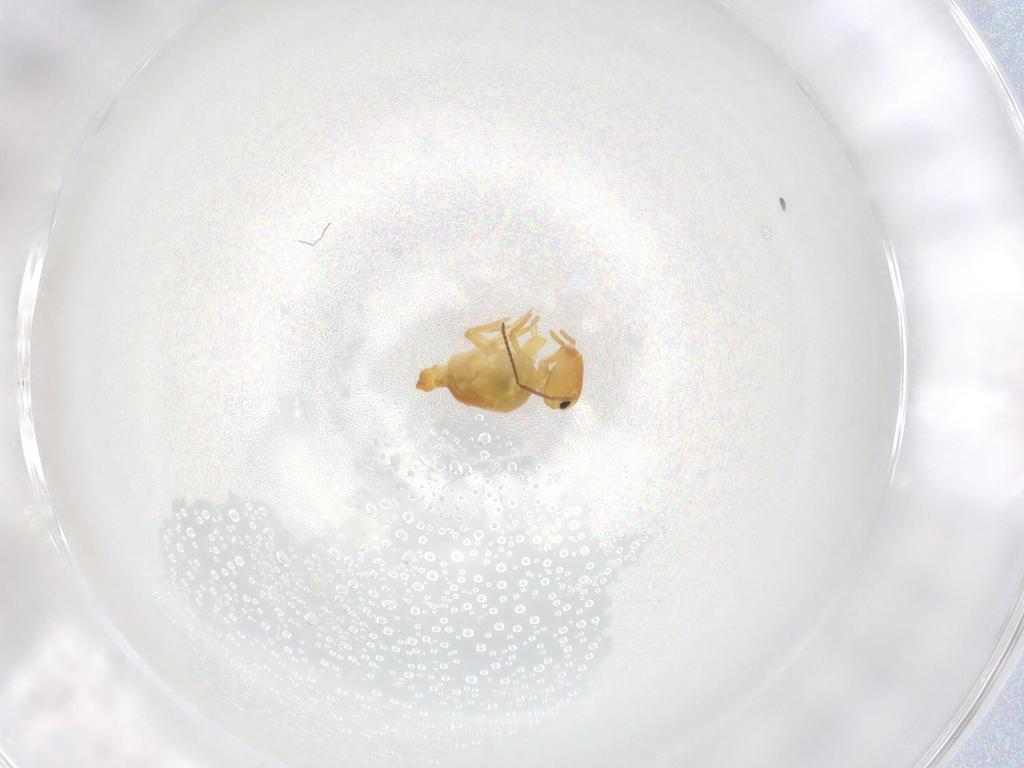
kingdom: Animalia
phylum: Arthropoda
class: Collembola
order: Symphypleona
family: Bourletiellidae
